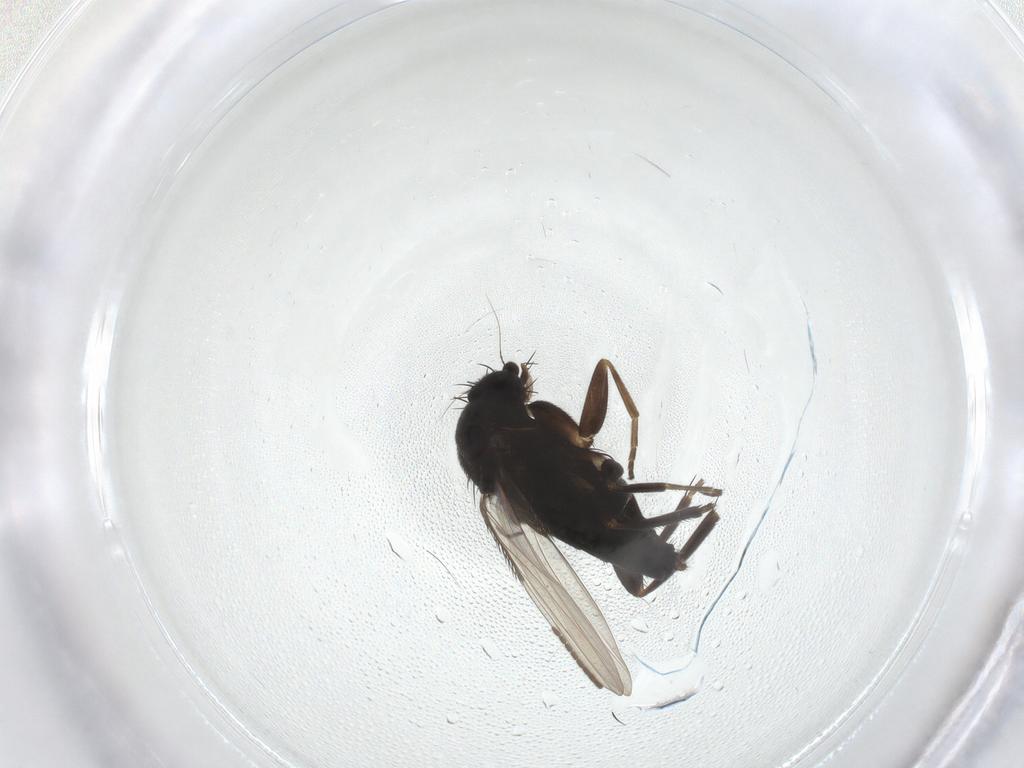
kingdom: Animalia
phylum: Arthropoda
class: Insecta
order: Diptera
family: Phoridae
